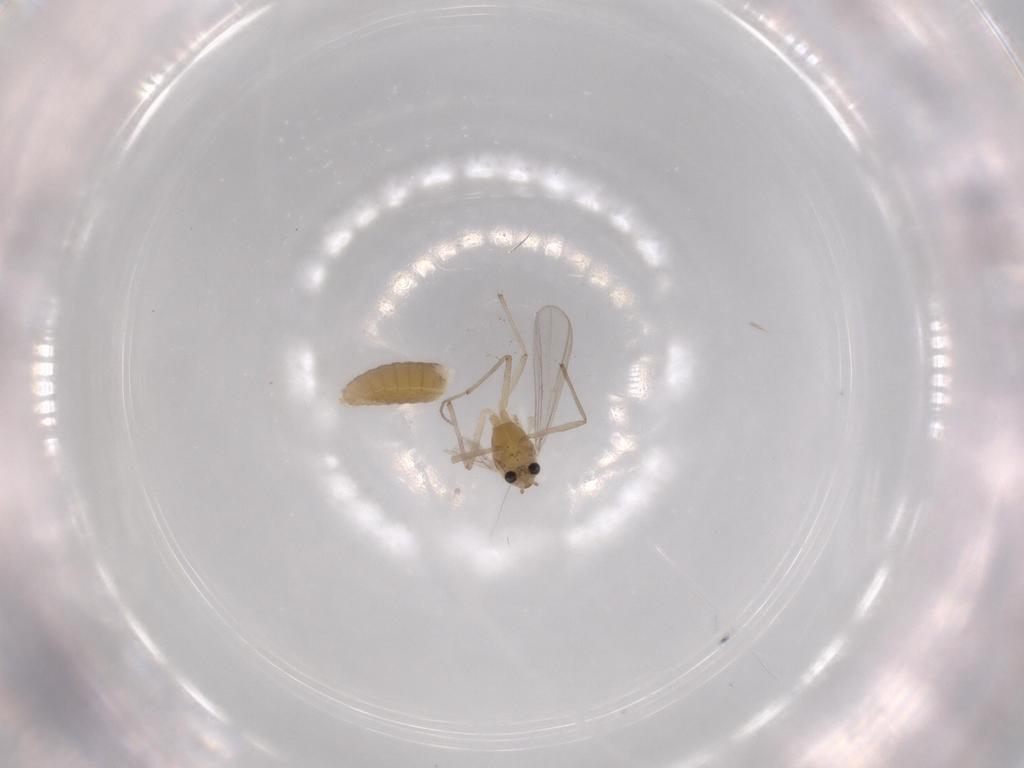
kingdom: Animalia
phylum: Arthropoda
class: Insecta
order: Diptera
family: Chironomidae
